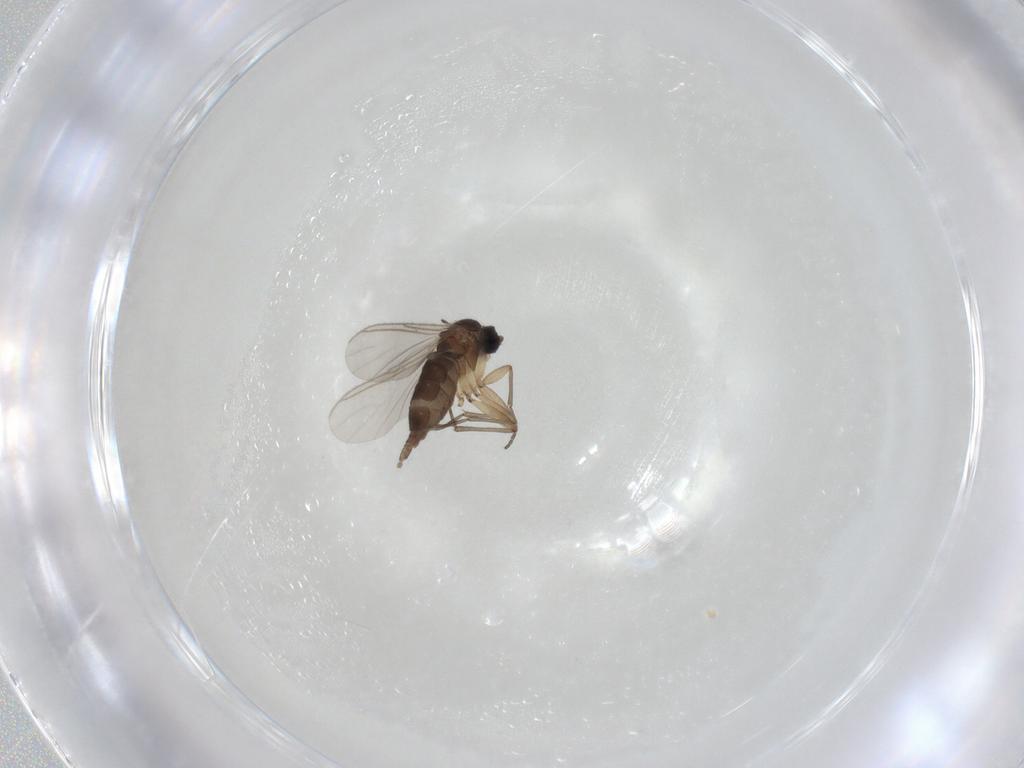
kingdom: Animalia
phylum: Arthropoda
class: Insecta
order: Diptera
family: Sciaridae
